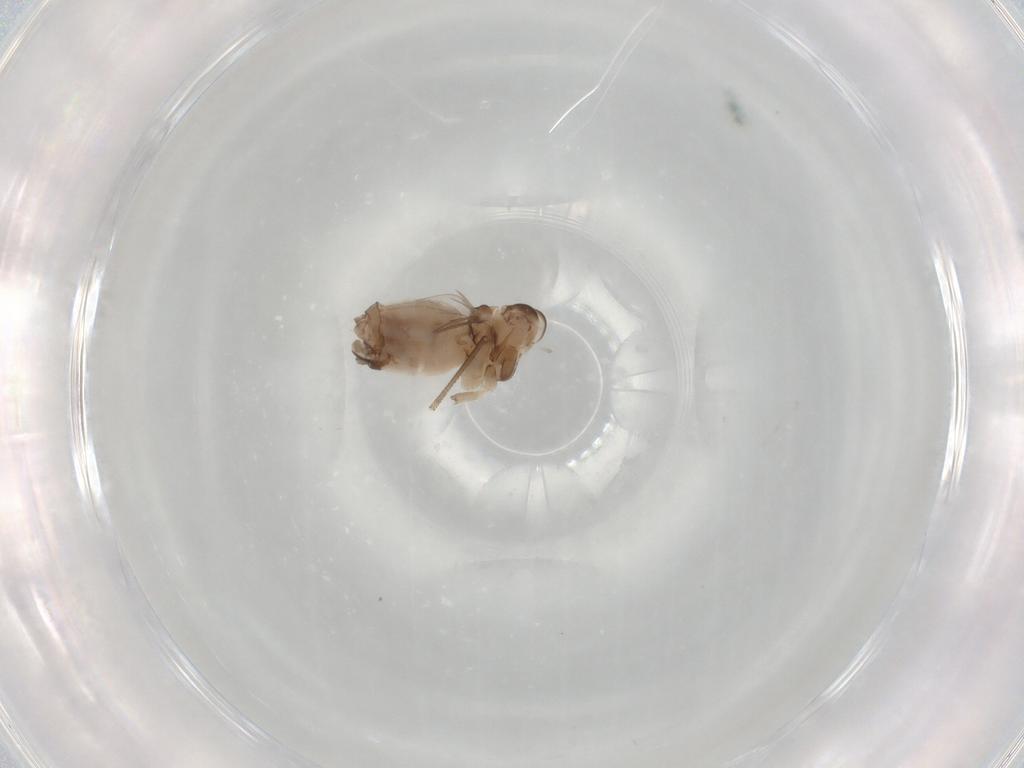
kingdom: Animalia
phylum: Arthropoda
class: Insecta
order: Psocodea
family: Peripsocidae
